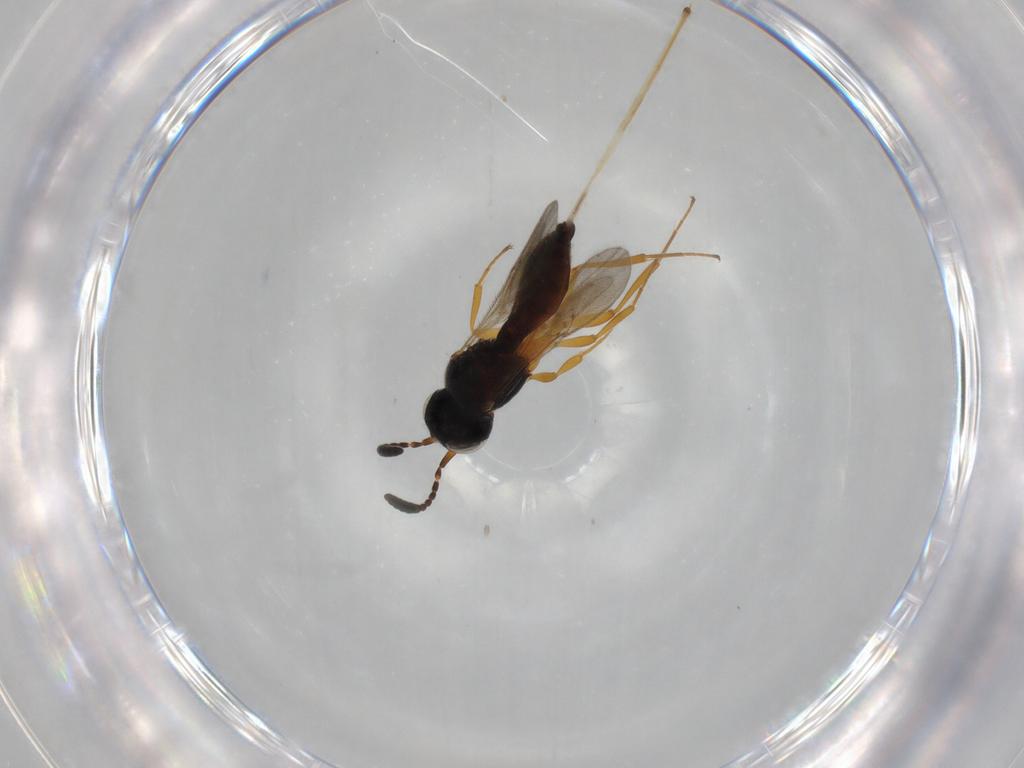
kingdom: Animalia
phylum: Arthropoda
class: Insecta
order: Hymenoptera
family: Scelionidae
